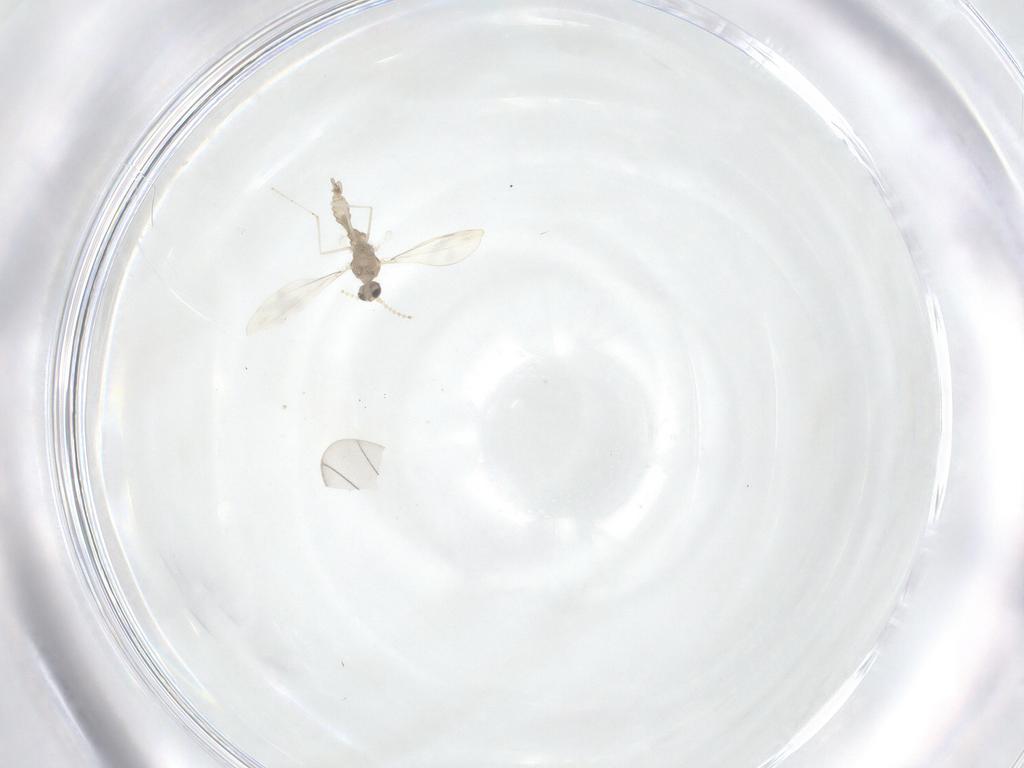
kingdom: Animalia
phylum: Arthropoda
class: Insecta
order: Diptera
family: Cecidomyiidae
